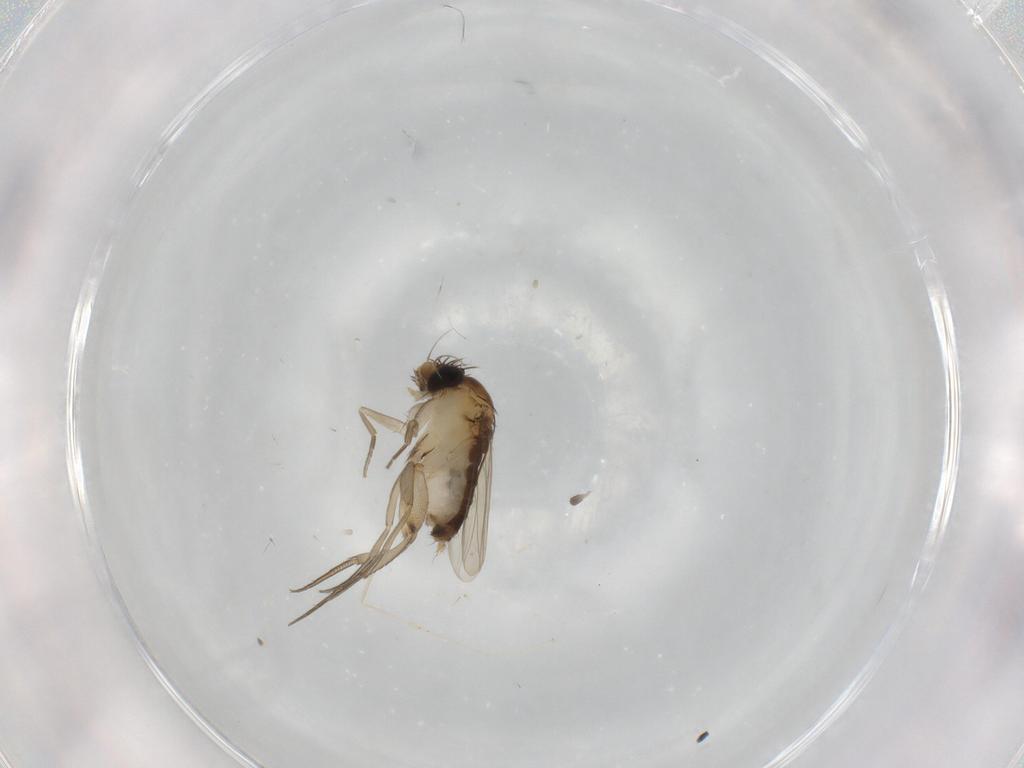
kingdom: Animalia
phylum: Arthropoda
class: Insecta
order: Diptera
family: Phoridae
